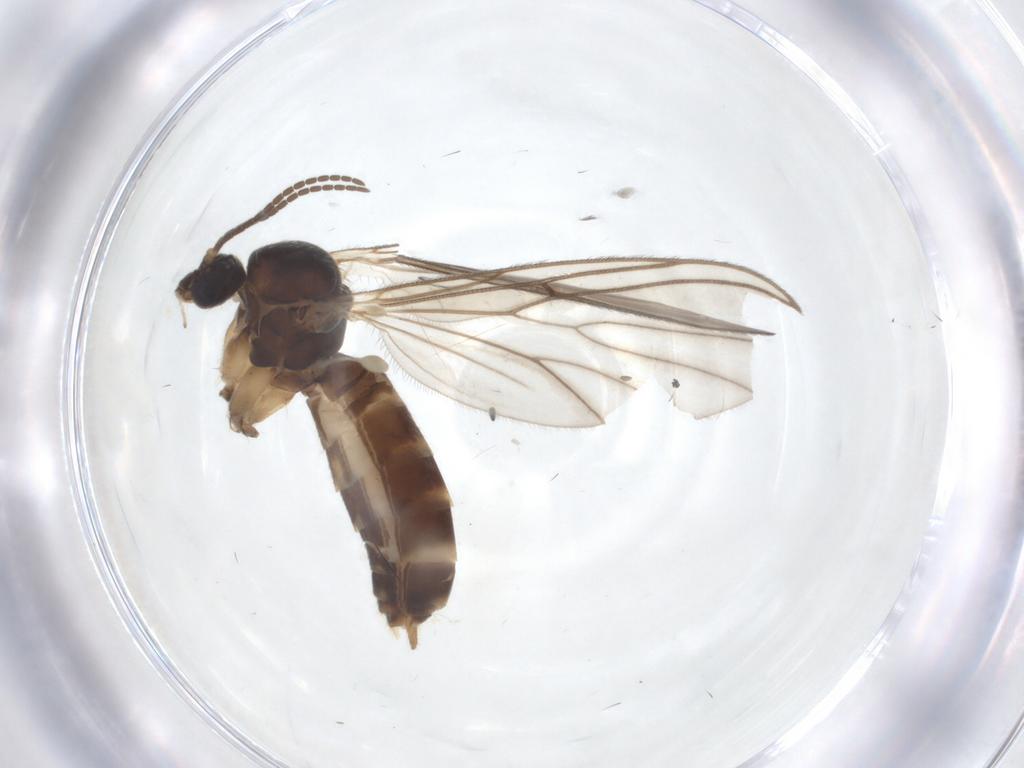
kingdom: Animalia
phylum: Arthropoda
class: Insecta
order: Diptera
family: Mycetophilidae
